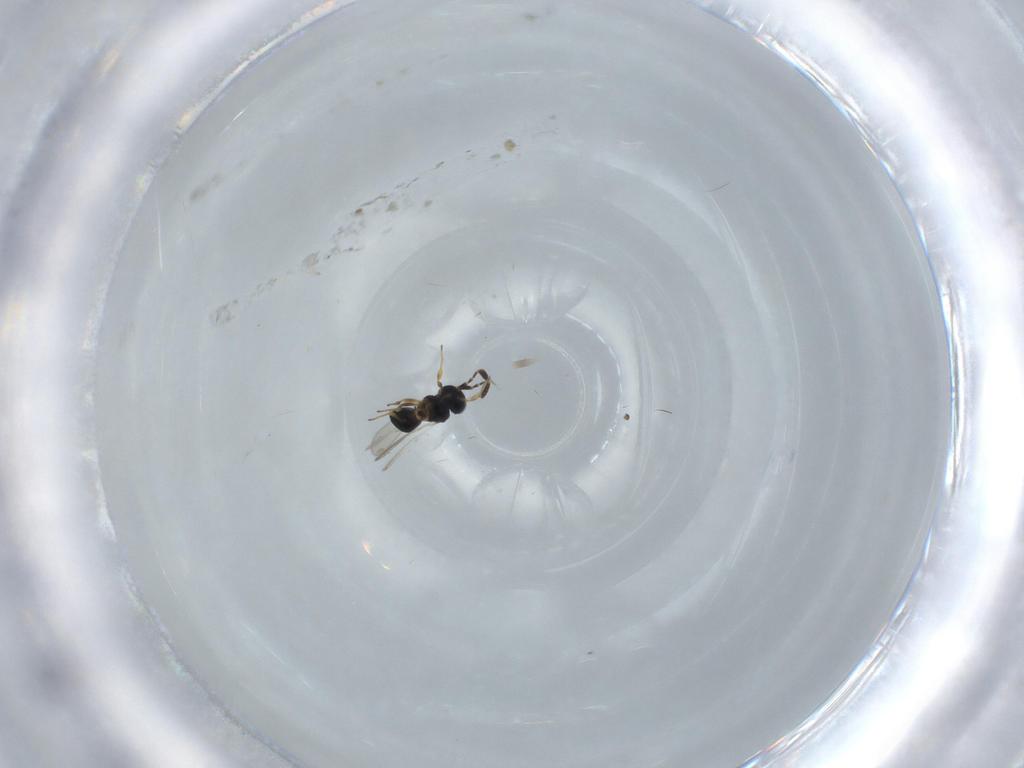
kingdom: Animalia
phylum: Arthropoda
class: Insecta
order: Hymenoptera
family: Scelionidae
